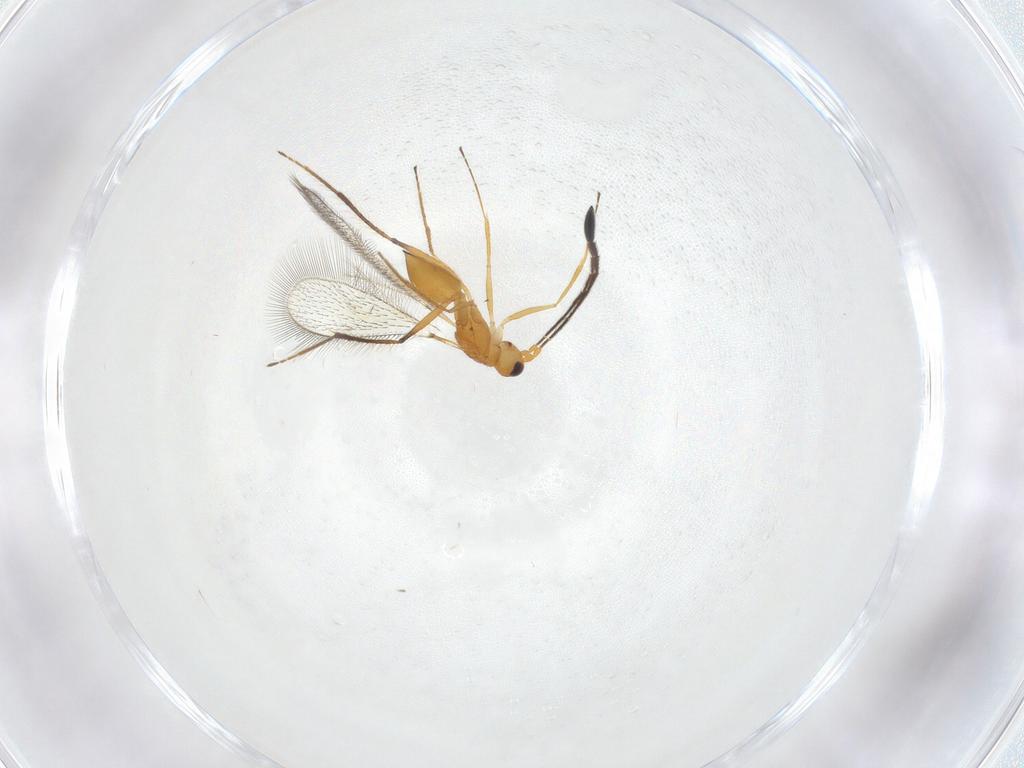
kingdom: Animalia
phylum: Arthropoda
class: Insecta
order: Hymenoptera
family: Mymaridae
